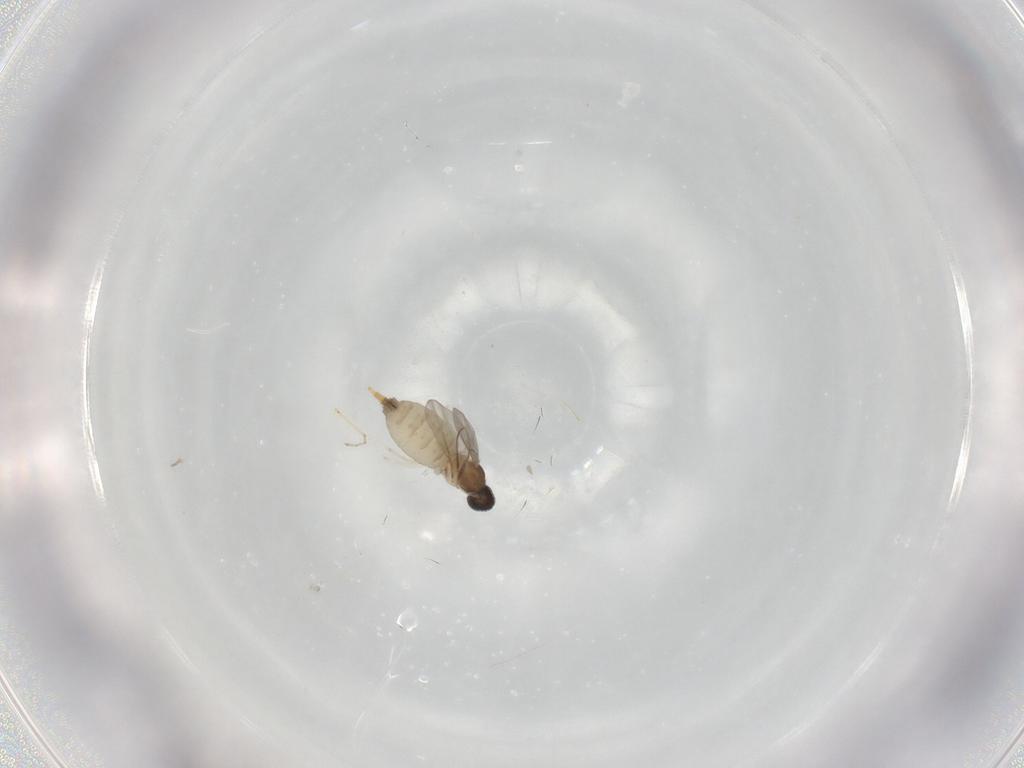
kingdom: Animalia
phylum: Arthropoda
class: Insecta
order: Diptera
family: Cecidomyiidae
